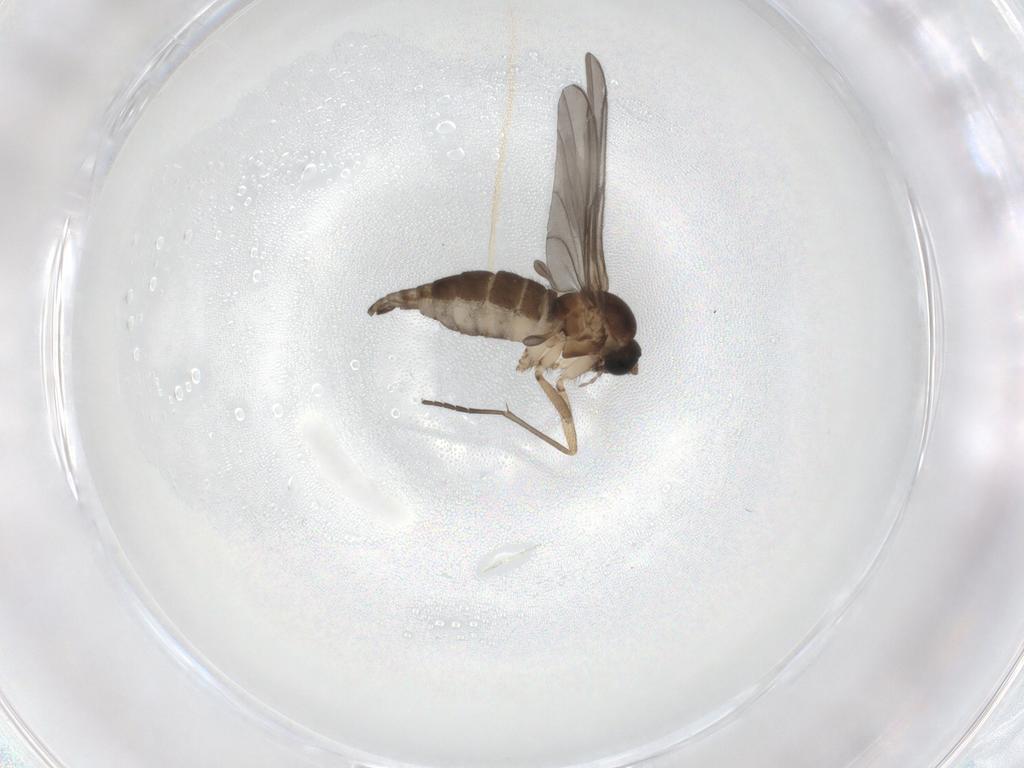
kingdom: Animalia
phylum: Arthropoda
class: Insecta
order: Diptera
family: Sciaridae
